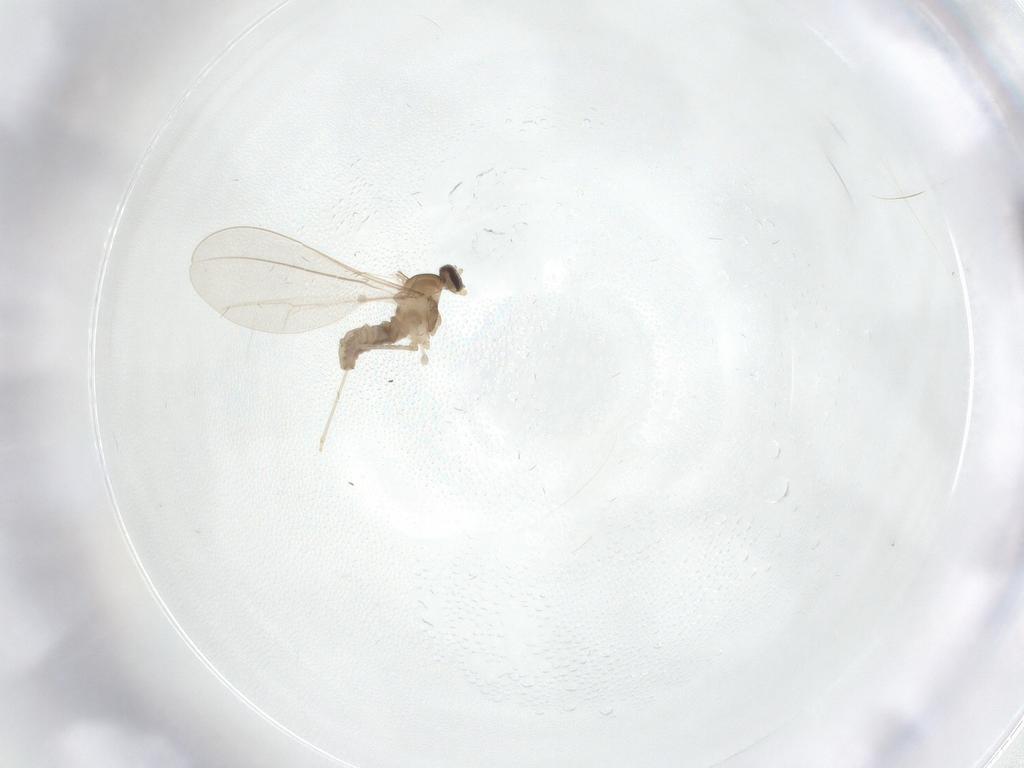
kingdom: Animalia
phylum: Arthropoda
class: Insecta
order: Diptera
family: Cecidomyiidae
